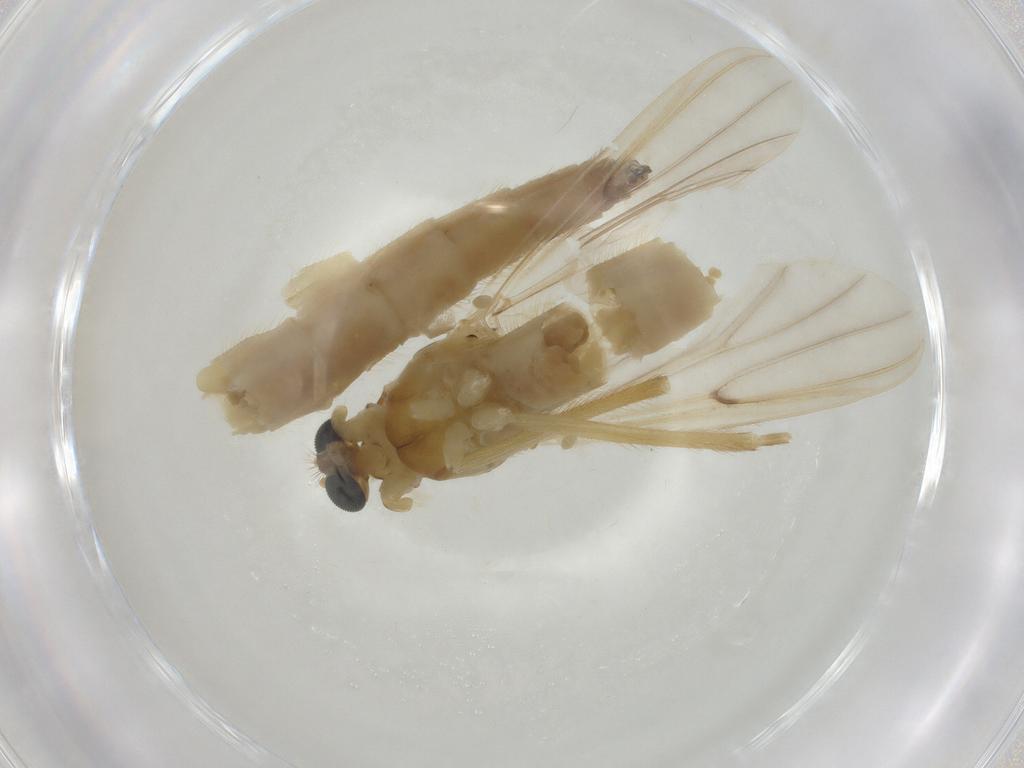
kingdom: Animalia
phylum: Arthropoda
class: Insecta
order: Diptera
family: Chironomidae
